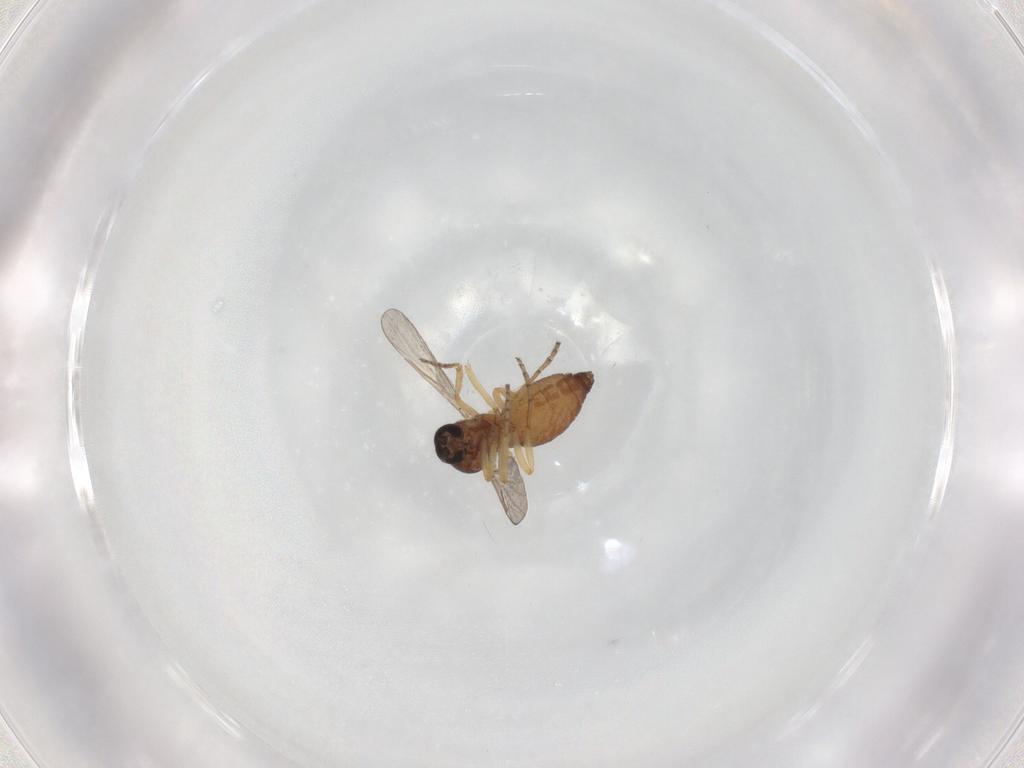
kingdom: Animalia
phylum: Arthropoda
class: Insecta
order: Diptera
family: Ceratopogonidae
